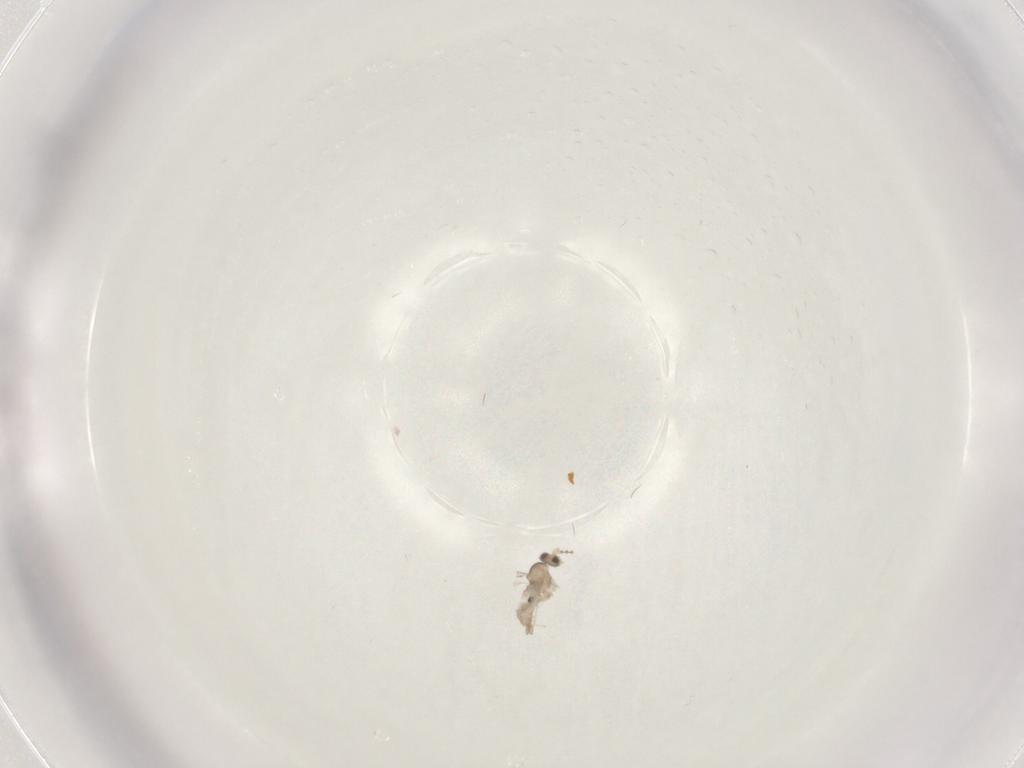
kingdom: Animalia
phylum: Arthropoda
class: Insecta
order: Diptera
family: Cecidomyiidae
